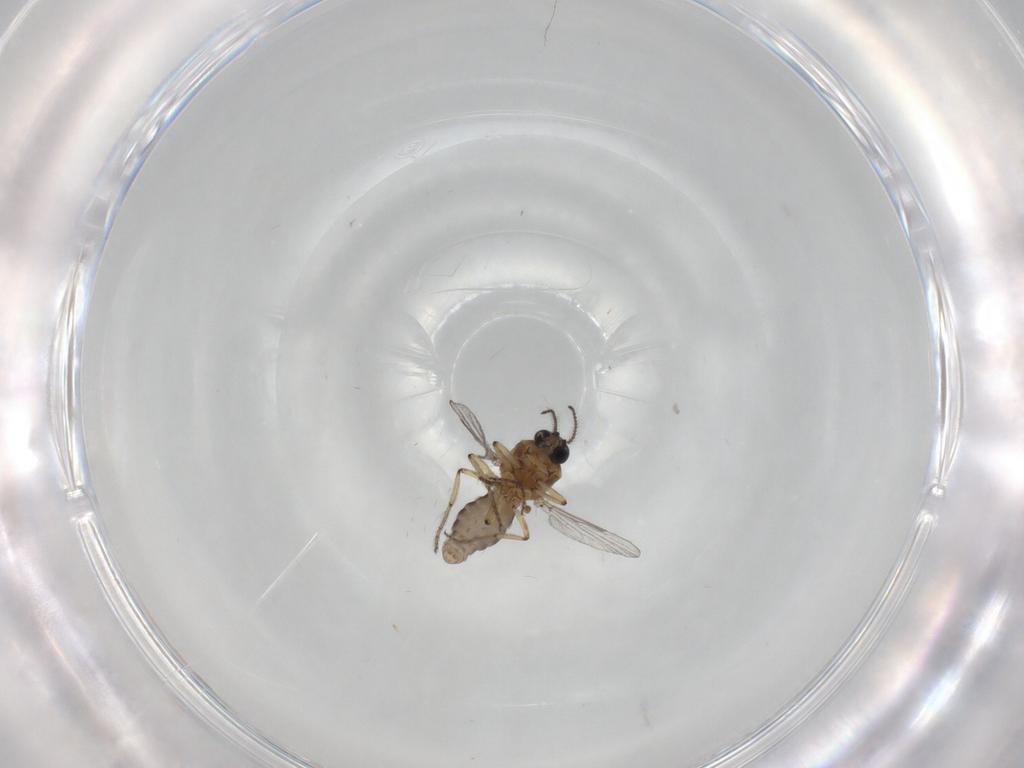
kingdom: Animalia
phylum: Arthropoda
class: Insecta
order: Diptera
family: Ceratopogonidae
